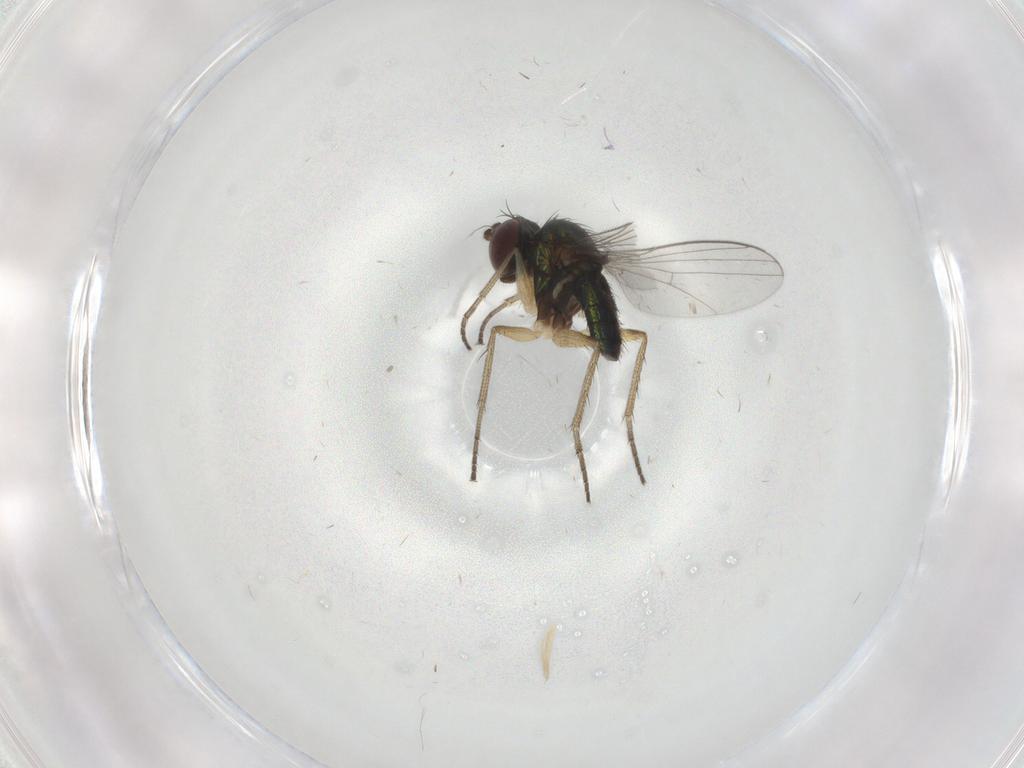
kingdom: Animalia
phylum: Arthropoda
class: Insecta
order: Diptera
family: Dolichopodidae
